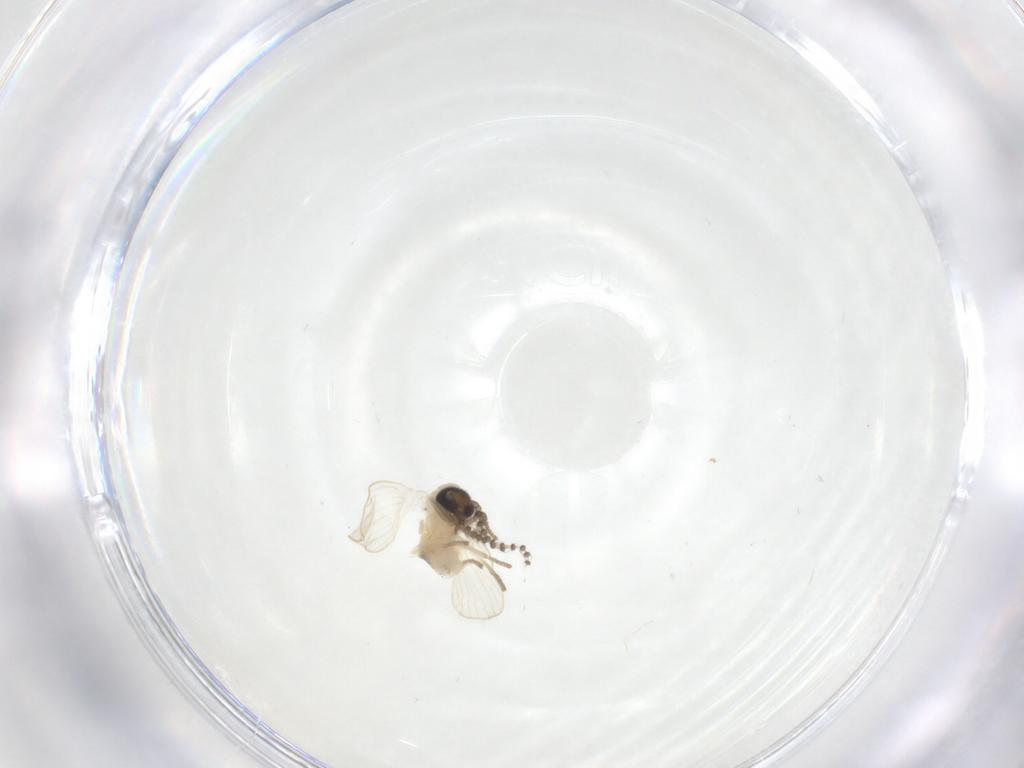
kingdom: Animalia
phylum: Arthropoda
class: Insecta
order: Diptera
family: Psychodidae
